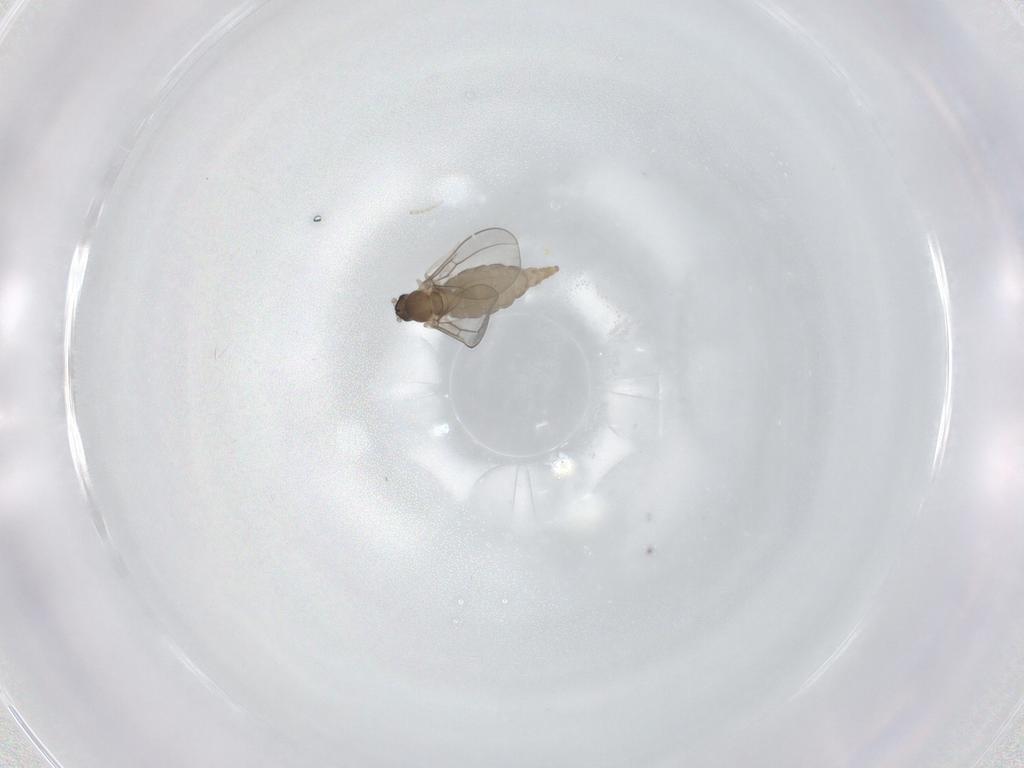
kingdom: Animalia
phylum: Arthropoda
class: Insecta
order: Diptera
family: Cecidomyiidae
